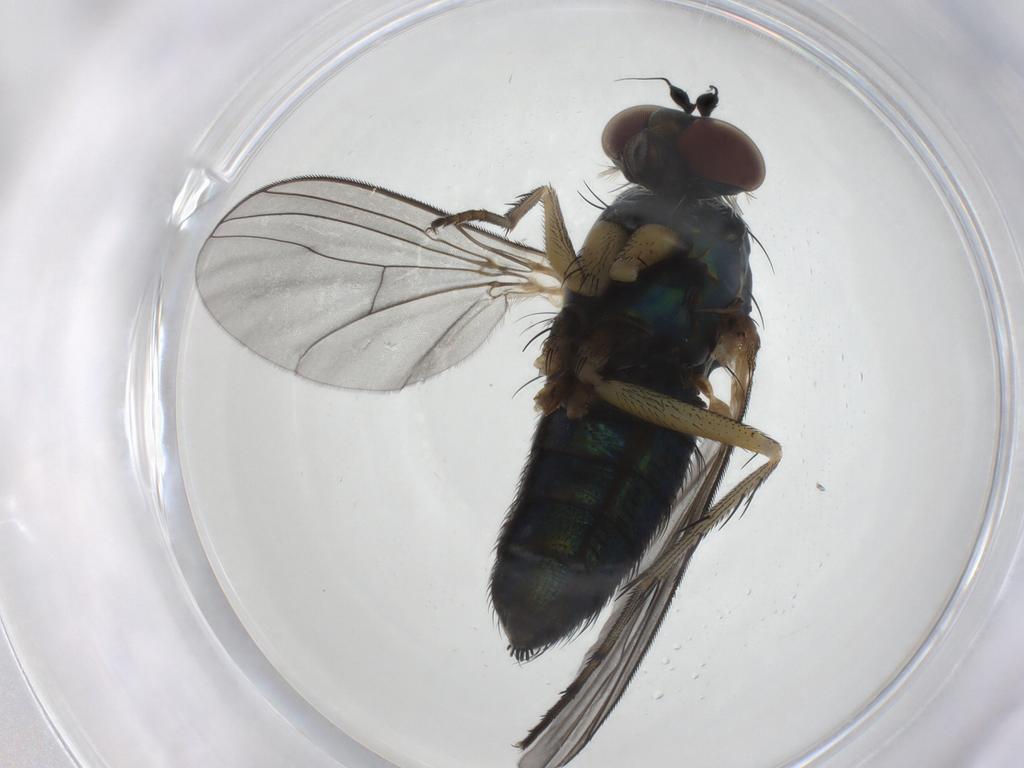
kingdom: Animalia
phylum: Arthropoda
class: Insecta
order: Diptera
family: Dolichopodidae
